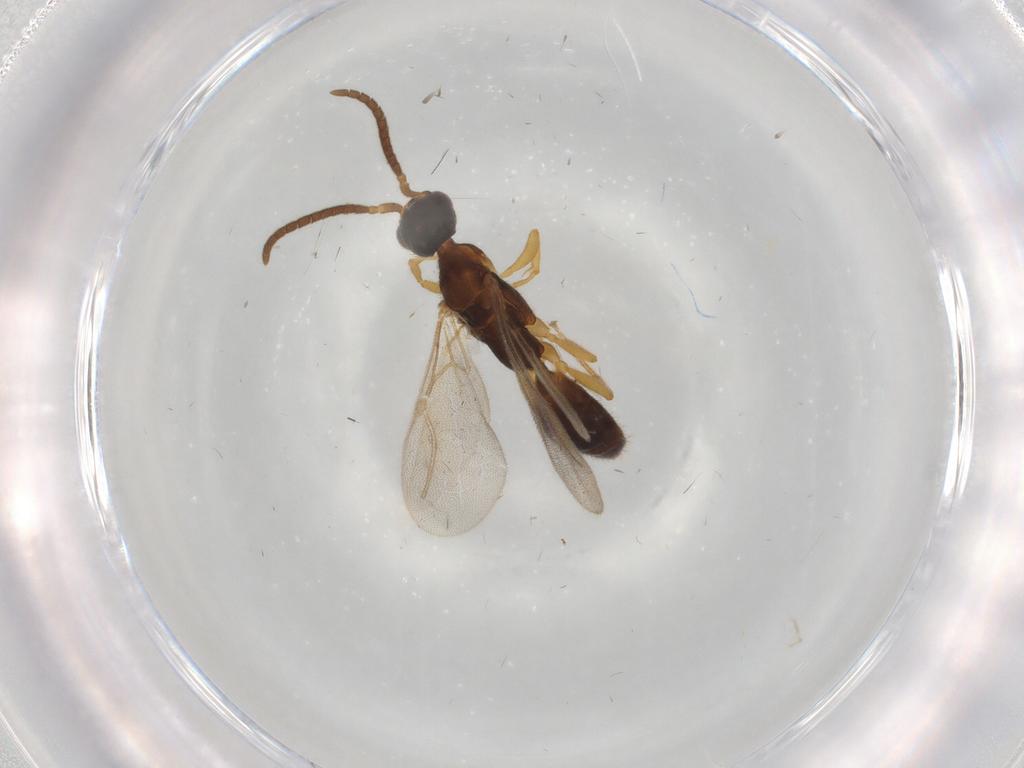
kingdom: Animalia
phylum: Arthropoda
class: Insecta
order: Hymenoptera
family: Bethylidae
